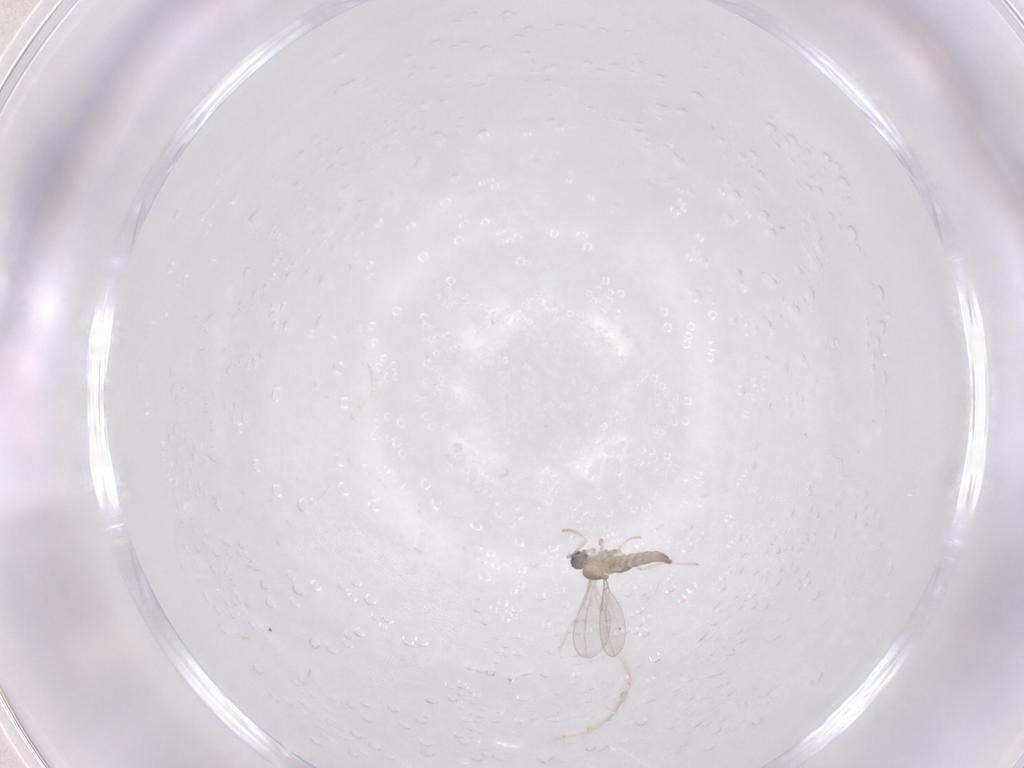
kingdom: Animalia
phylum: Arthropoda
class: Insecta
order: Diptera
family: Cecidomyiidae
